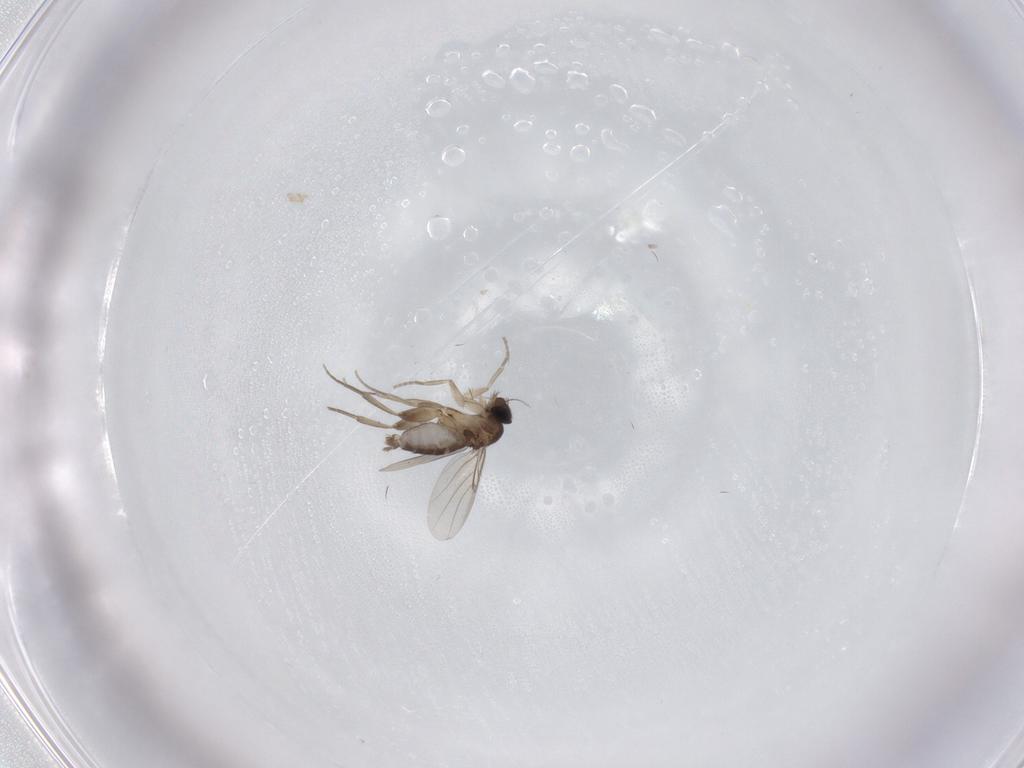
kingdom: Animalia
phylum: Arthropoda
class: Insecta
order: Diptera
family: Phoridae
